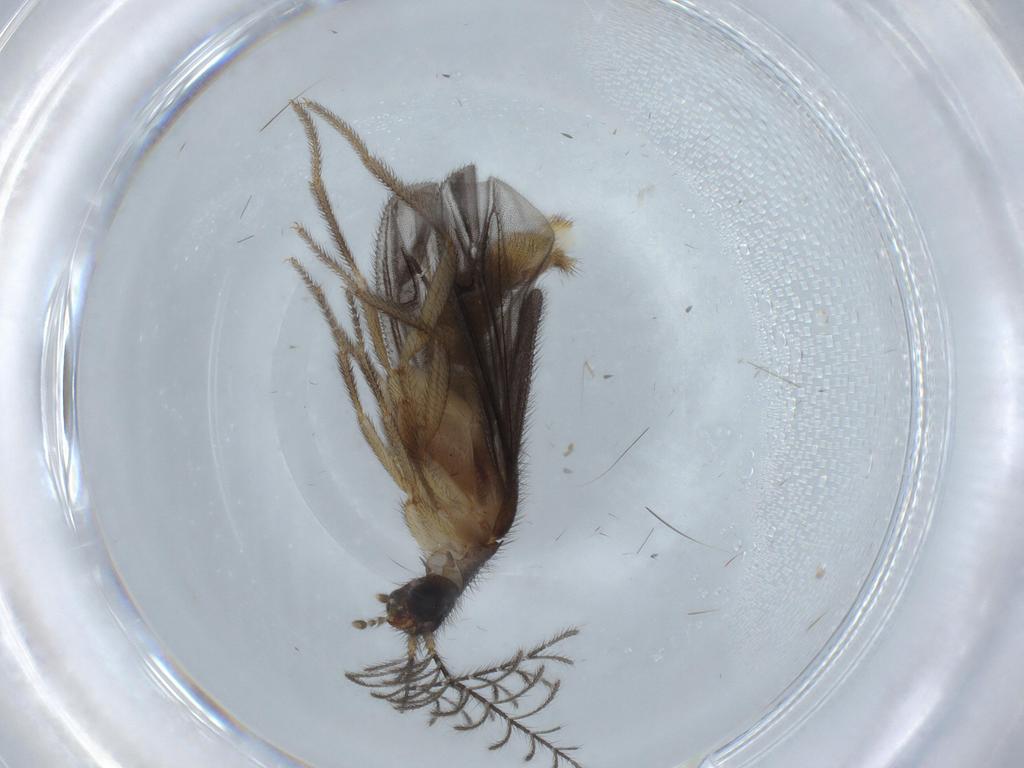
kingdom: Animalia
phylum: Arthropoda
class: Insecta
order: Coleoptera
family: Phengodidae
